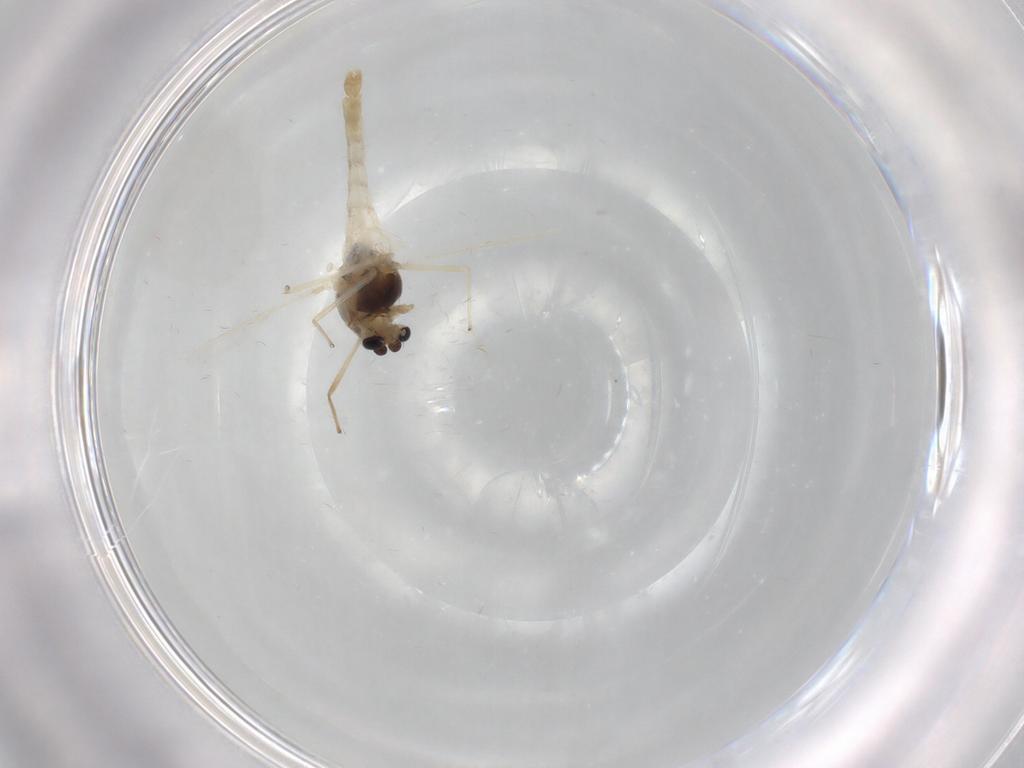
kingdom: Animalia
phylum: Arthropoda
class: Insecta
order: Diptera
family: Chironomidae
